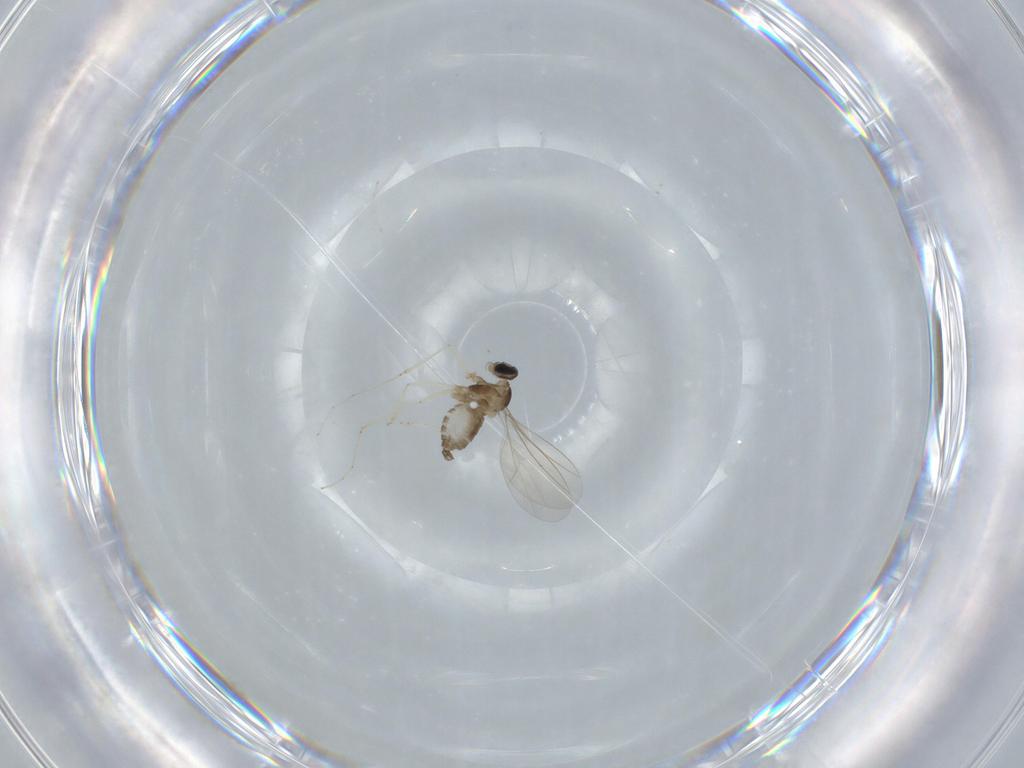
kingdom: Animalia
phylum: Arthropoda
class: Insecta
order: Diptera
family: Cecidomyiidae
